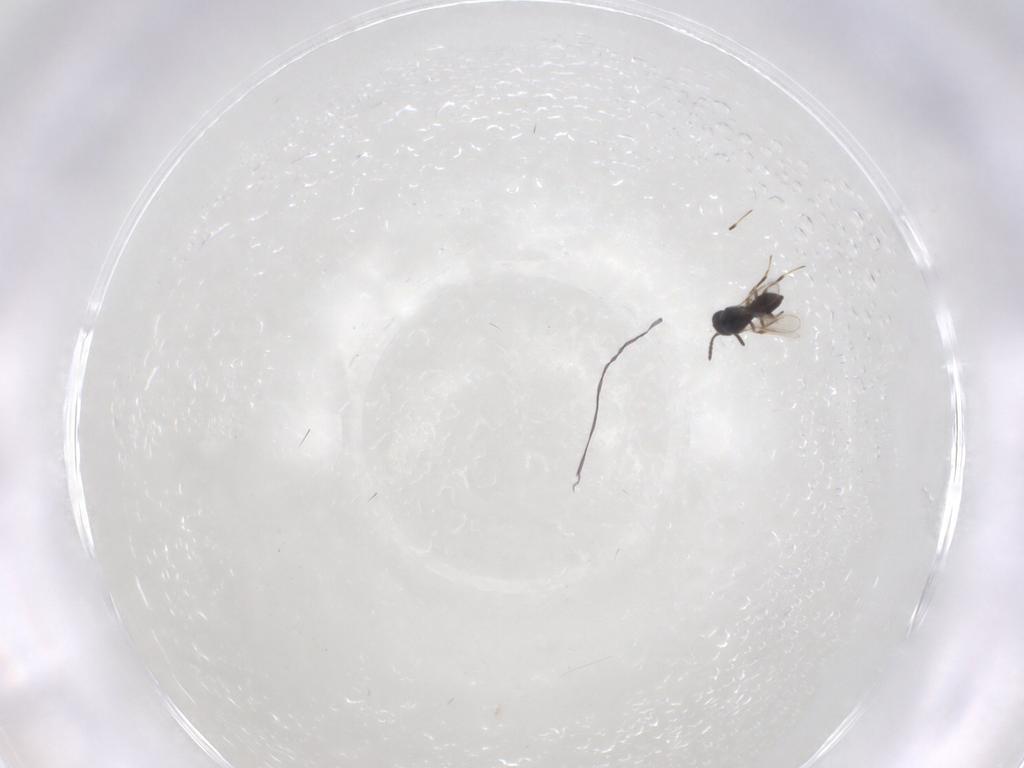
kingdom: Animalia
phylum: Arthropoda
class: Insecta
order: Hymenoptera
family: Scelionidae
